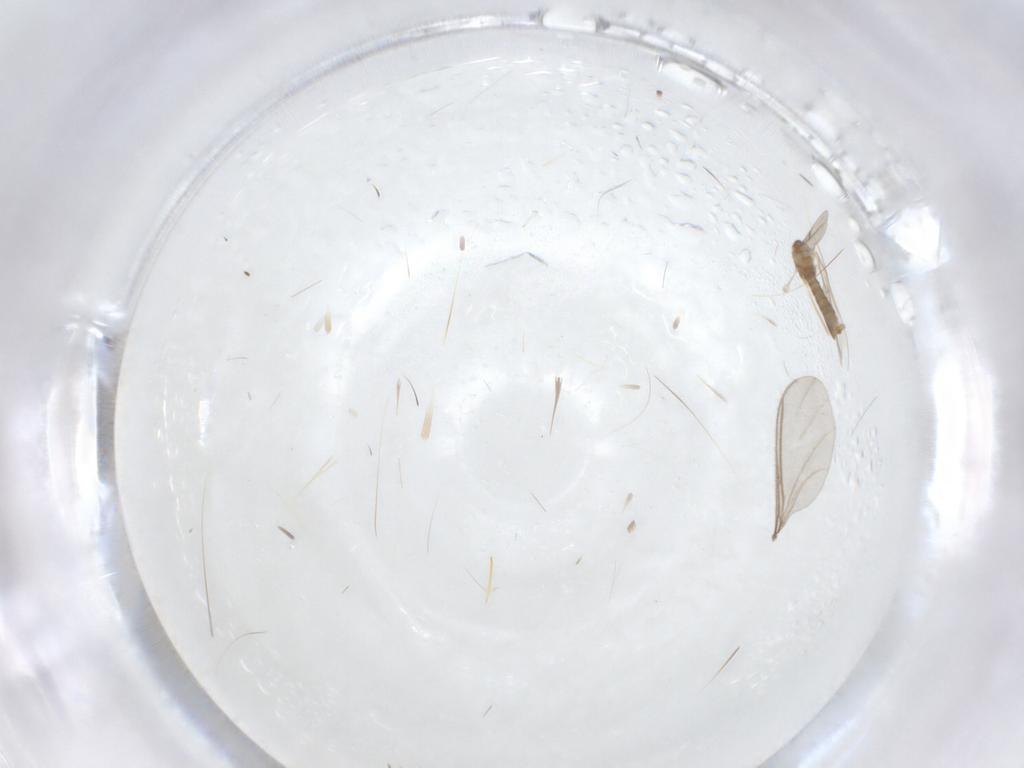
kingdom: Animalia
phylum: Arthropoda
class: Insecta
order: Diptera
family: Cecidomyiidae
